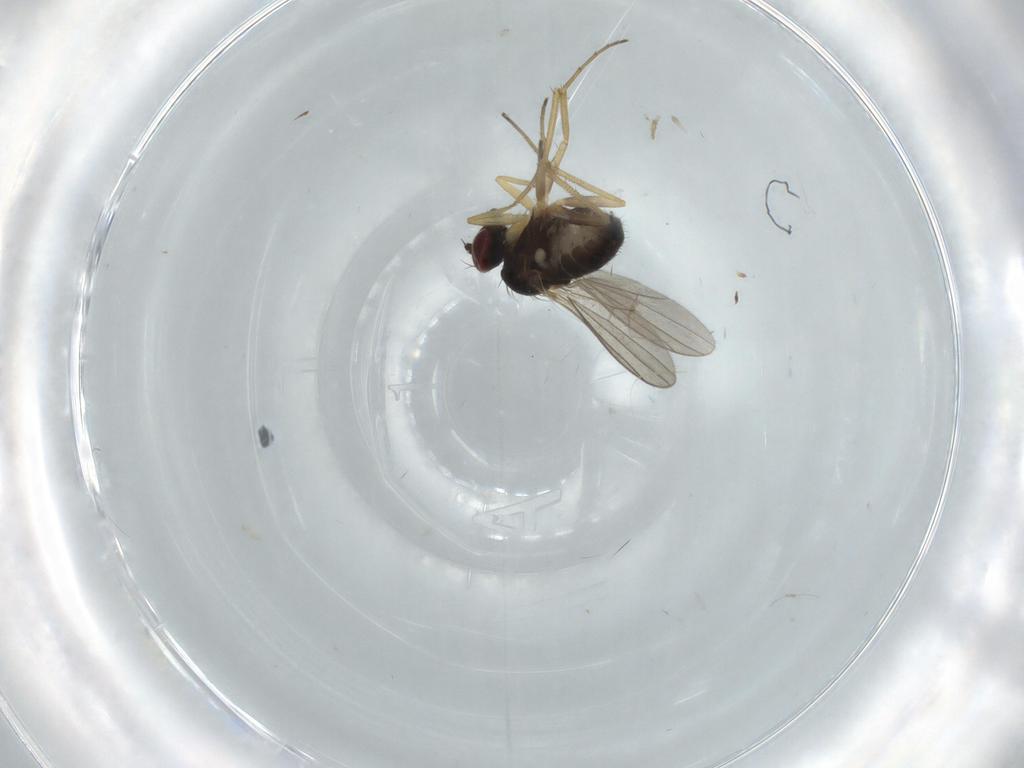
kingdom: Animalia
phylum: Arthropoda
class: Insecta
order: Diptera
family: Dolichopodidae
